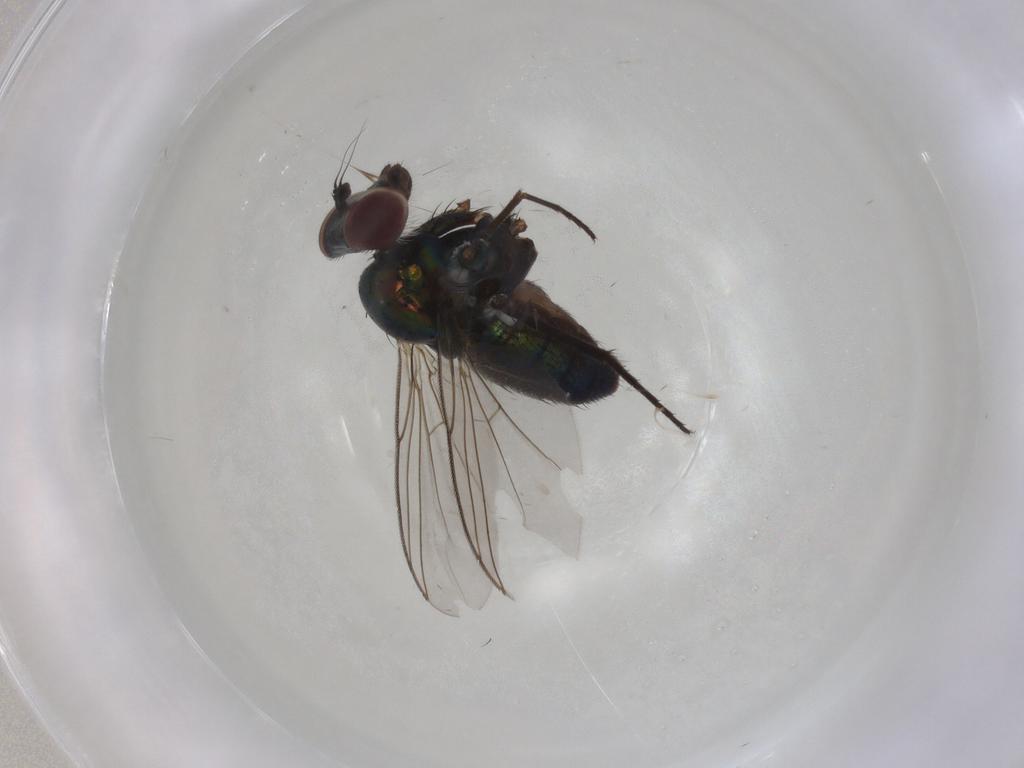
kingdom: Animalia
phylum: Arthropoda
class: Insecta
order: Diptera
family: Dolichopodidae
